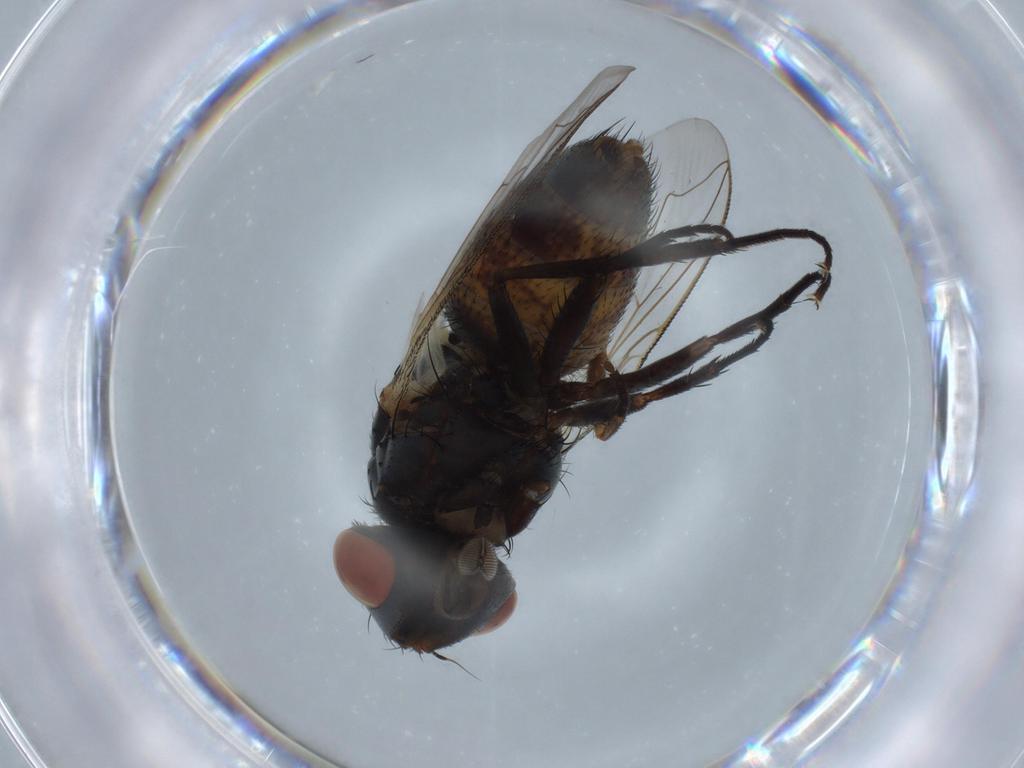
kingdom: Animalia
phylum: Arthropoda
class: Insecta
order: Diptera
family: Sarcophagidae
